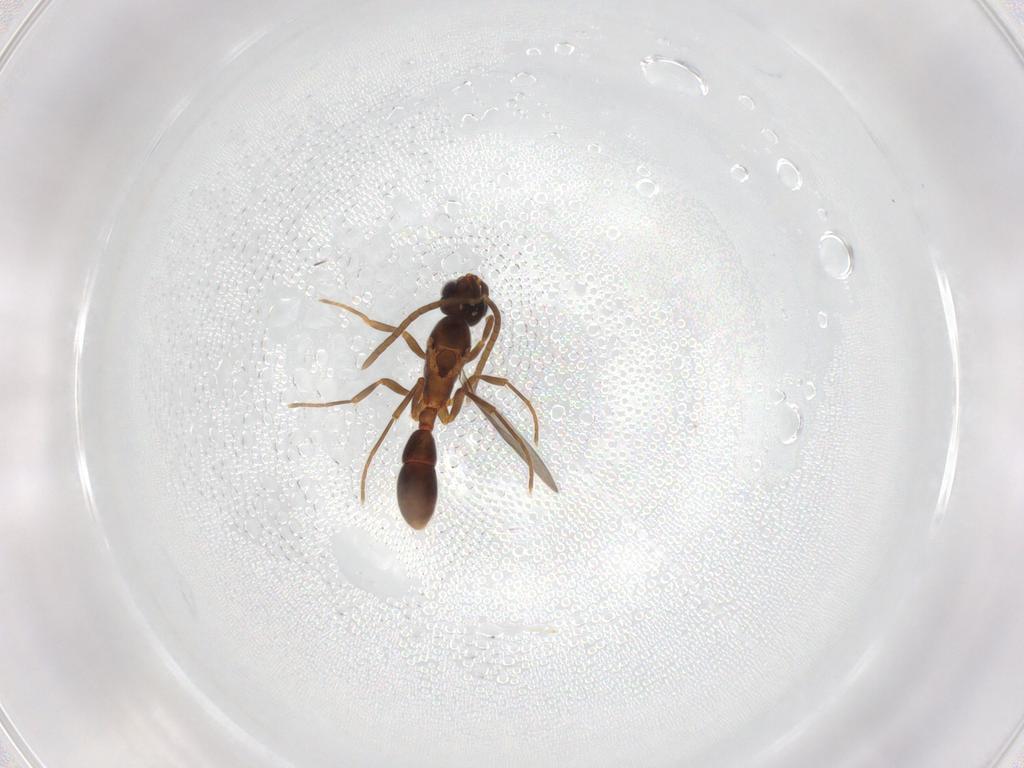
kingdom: Animalia
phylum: Arthropoda
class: Insecta
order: Hymenoptera
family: Formicidae
